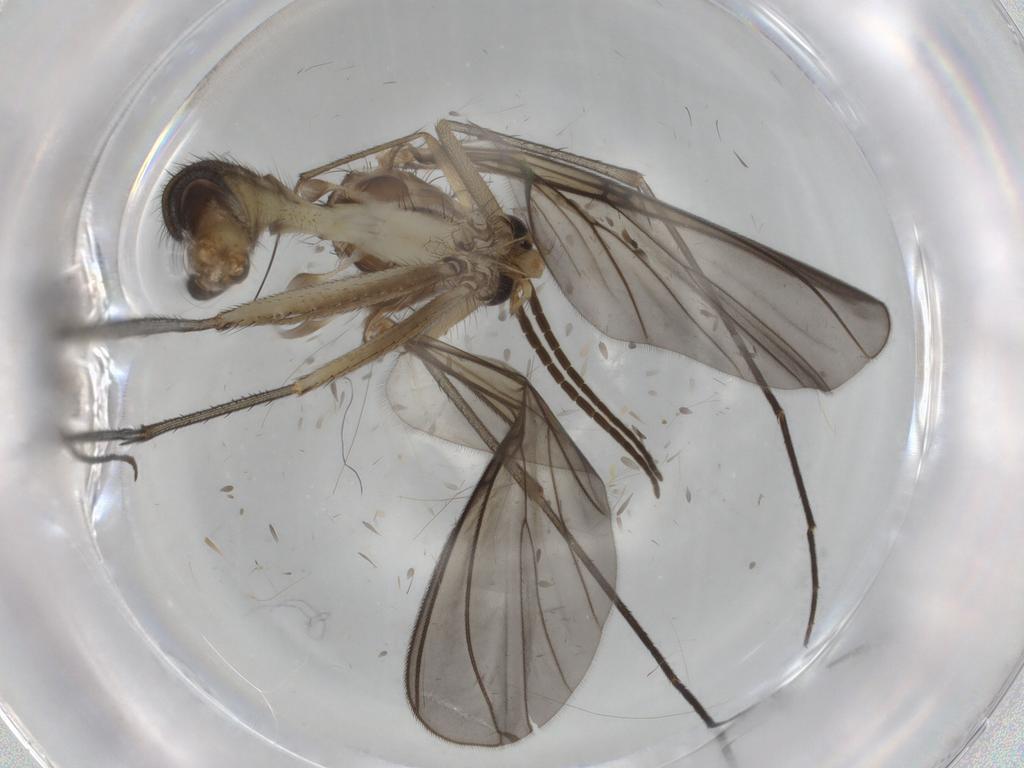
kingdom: Animalia
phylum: Arthropoda
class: Insecta
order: Diptera
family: Mycetophilidae
